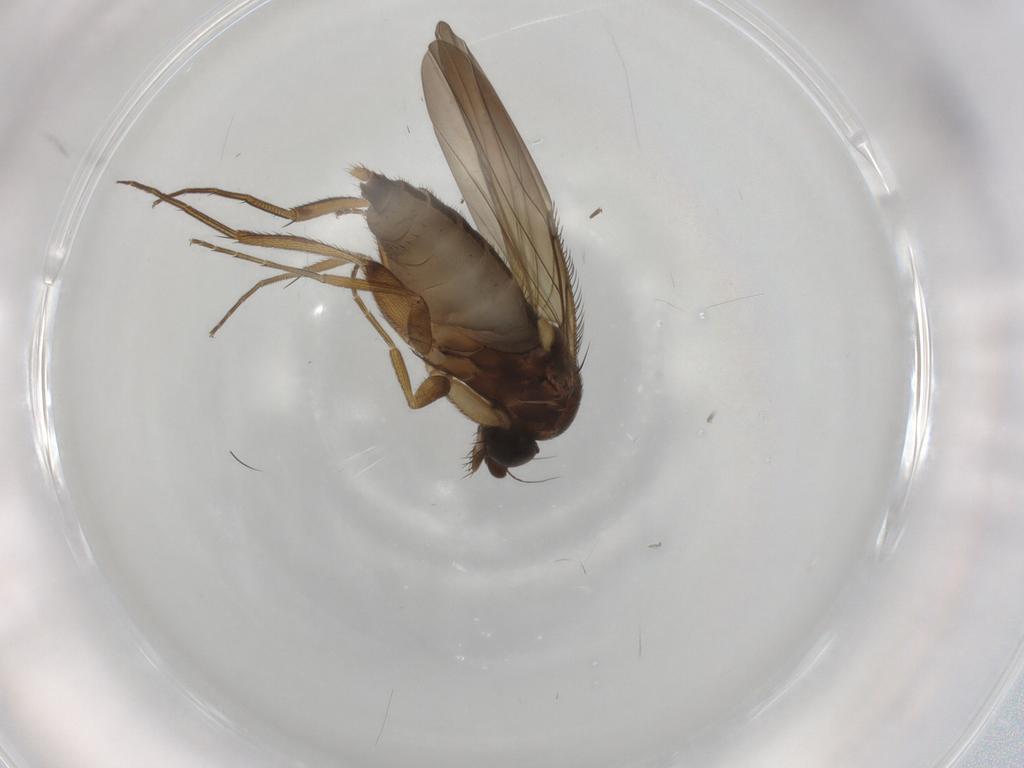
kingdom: Animalia
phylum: Arthropoda
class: Insecta
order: Diptera
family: Phoridae
